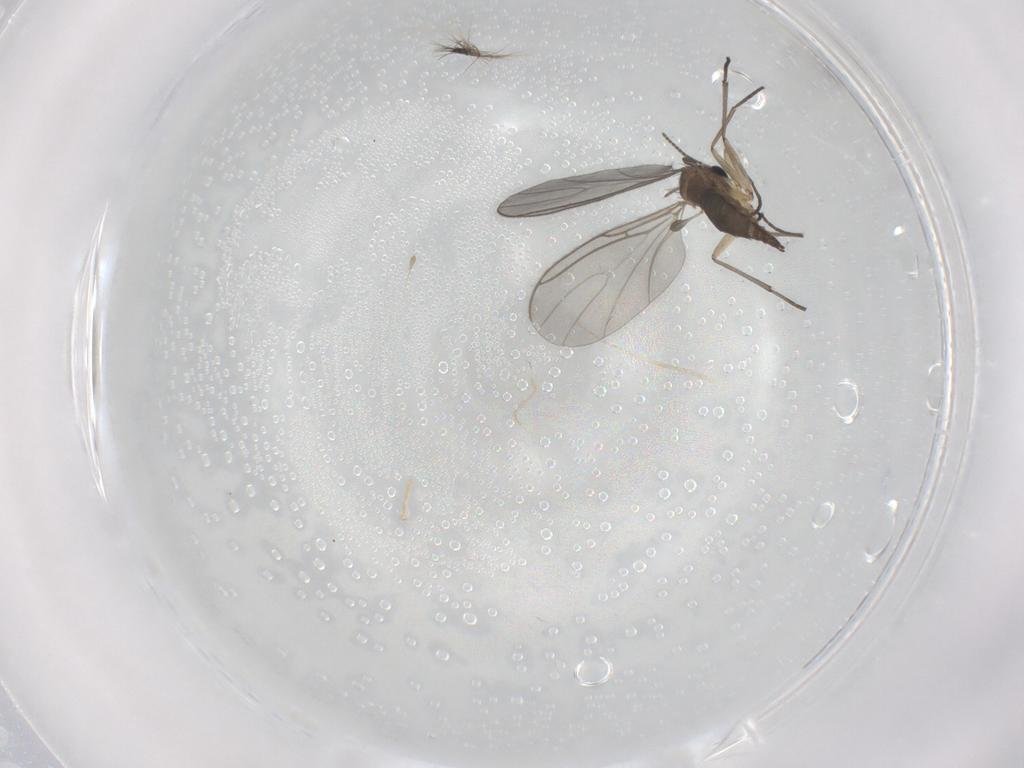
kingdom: Animalia
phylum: Arthropoda
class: Insecta
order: Diptera
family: Sciaridae
